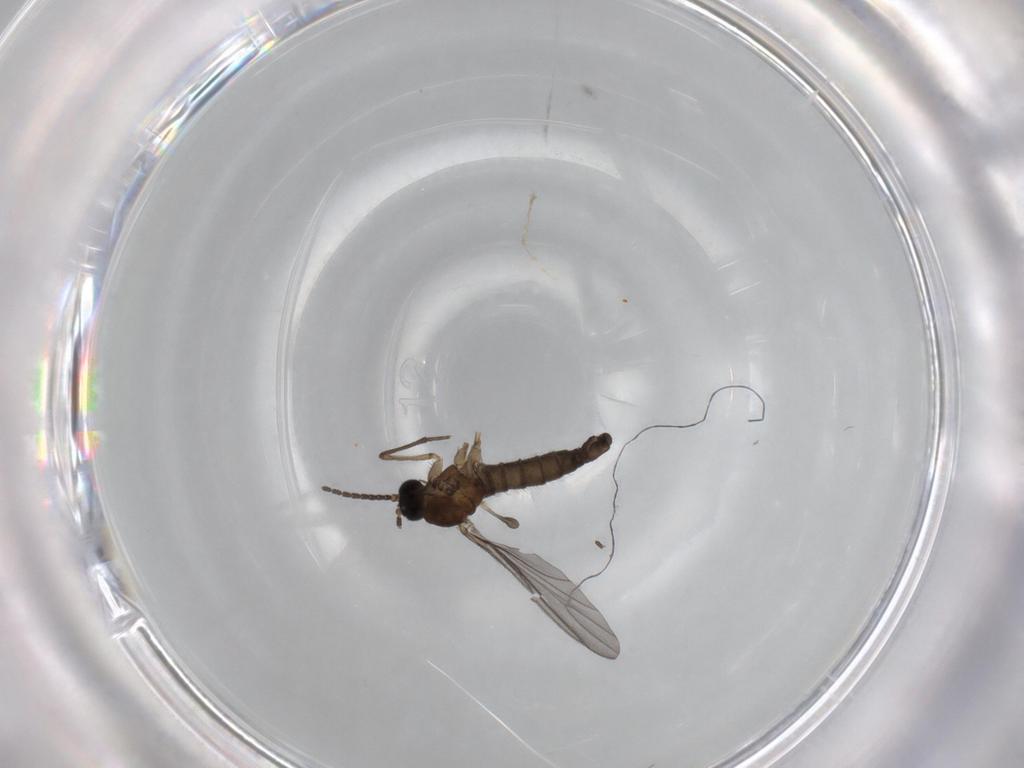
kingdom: Animalia
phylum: Arthropoda
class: Insecta
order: Diptera
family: Sciaridae
